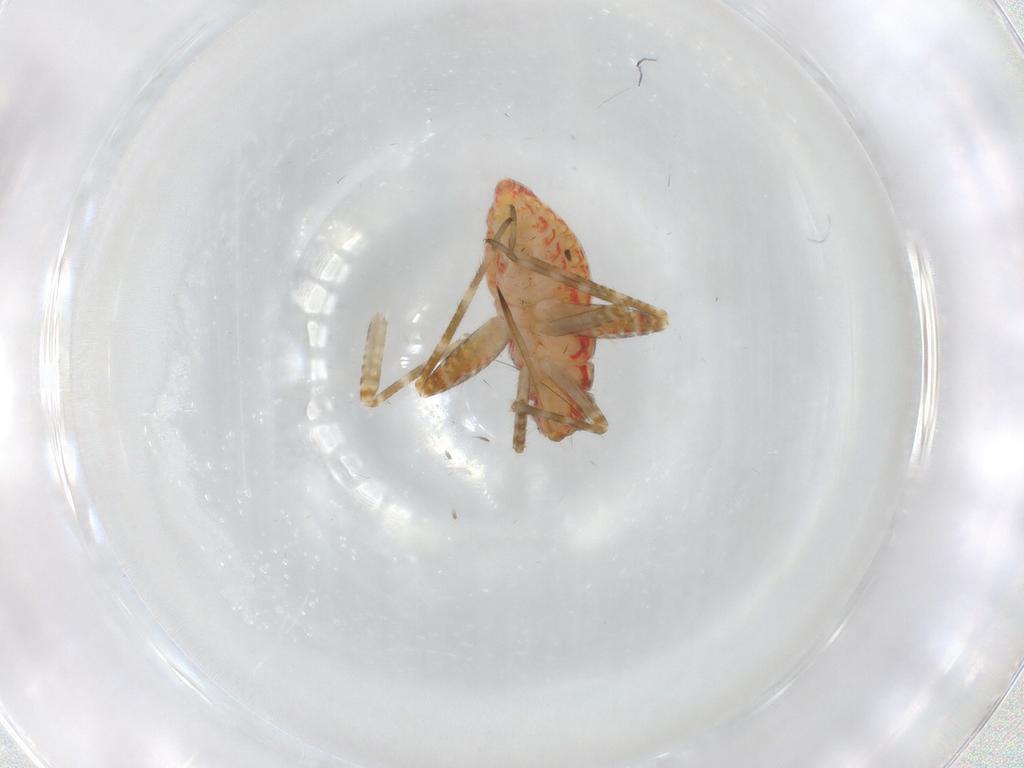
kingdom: Animalia
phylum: Arthropoda
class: Insecta
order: Hemiptera
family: Miridae
